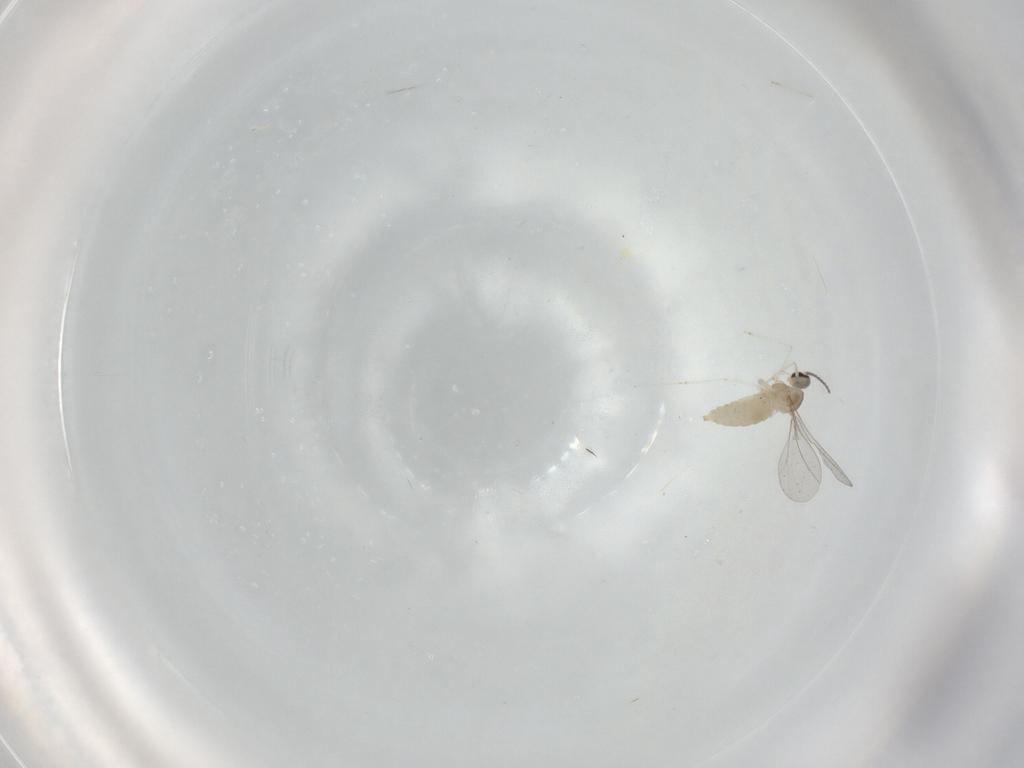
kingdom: Animalia
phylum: Arthropoda
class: Insecta
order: Diptera
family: Cecidomyiidae
